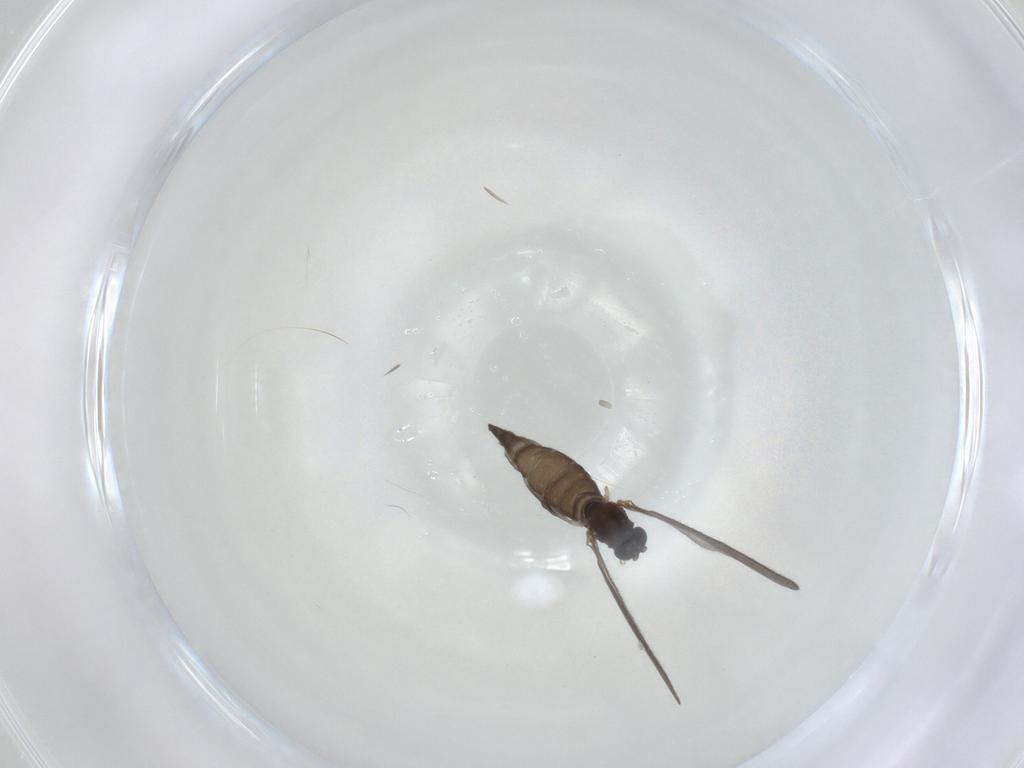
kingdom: Animalia
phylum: Arthropoda
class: Insecta
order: Diptera
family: Sciaridae
